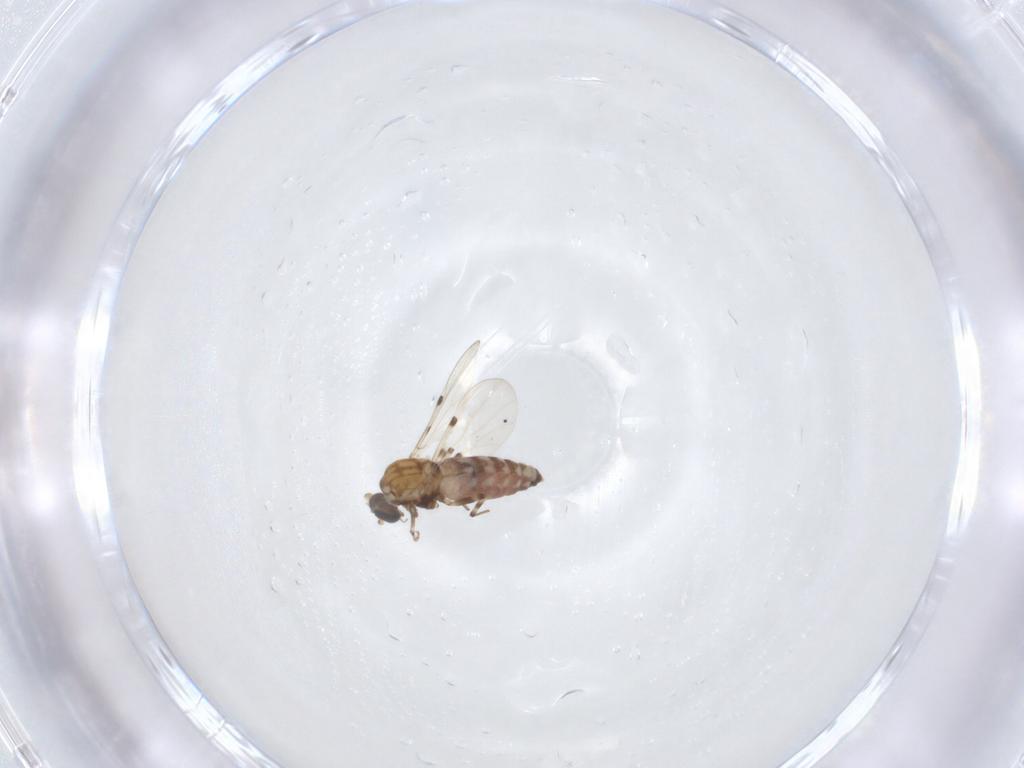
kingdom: Animalia
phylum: Arthropoda
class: Insecta
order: Diptera
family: Ceratopogonidae
